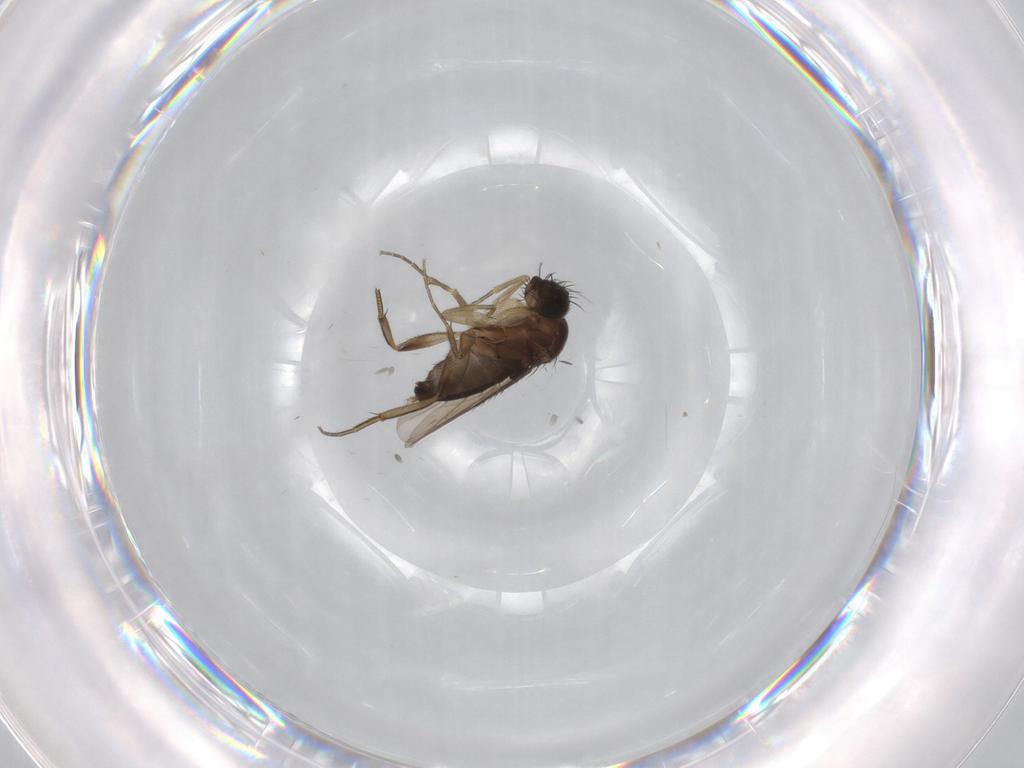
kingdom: Animalia
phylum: Arthropoda
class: Insecta
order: Diptera
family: Phoridae
